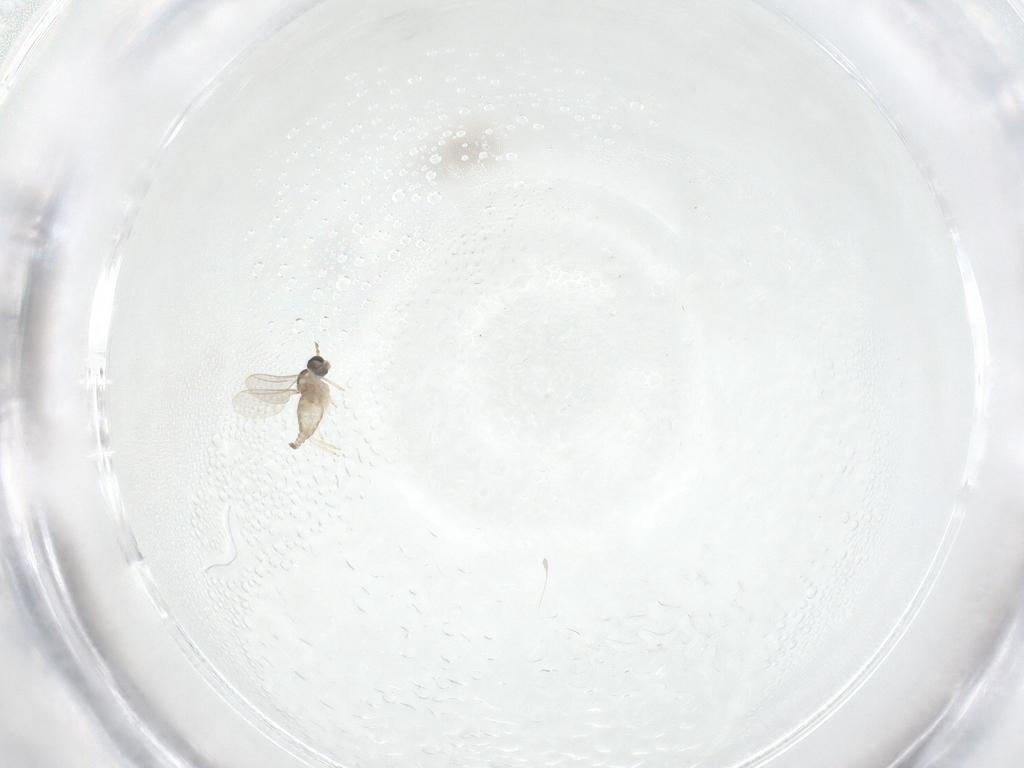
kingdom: Animalia
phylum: Arthropoda
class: Insecta
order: Diptera
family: Phoridae
